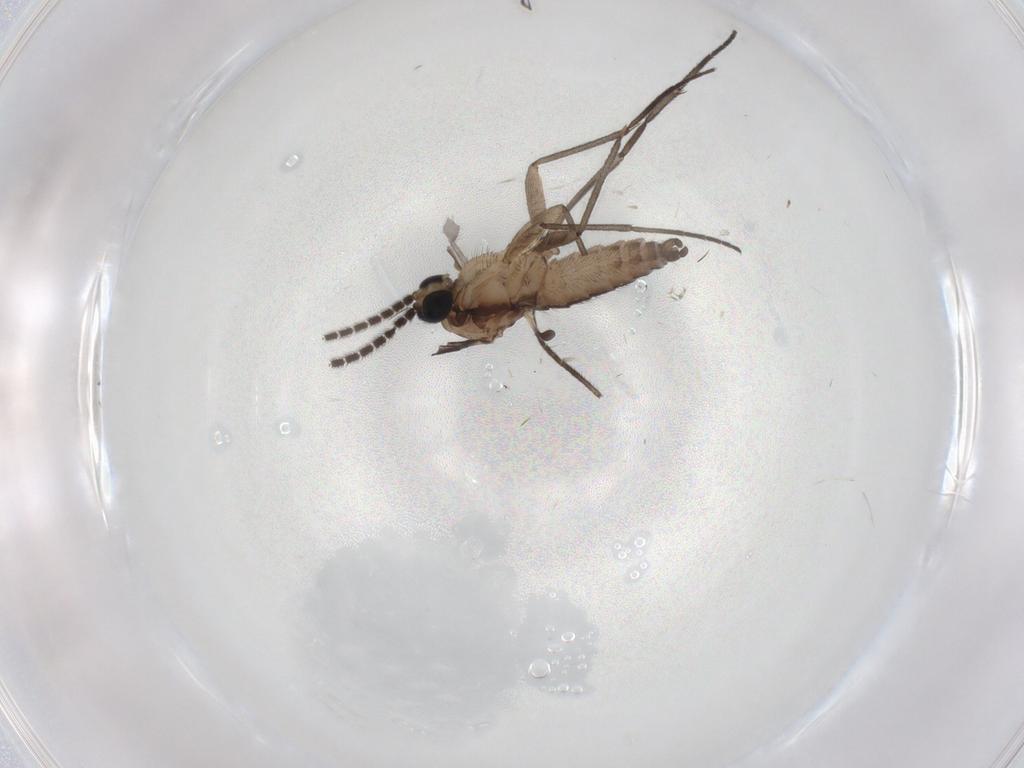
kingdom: Animalia
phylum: Arthropoda
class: Insecta
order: Diptera
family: Sciaridae
